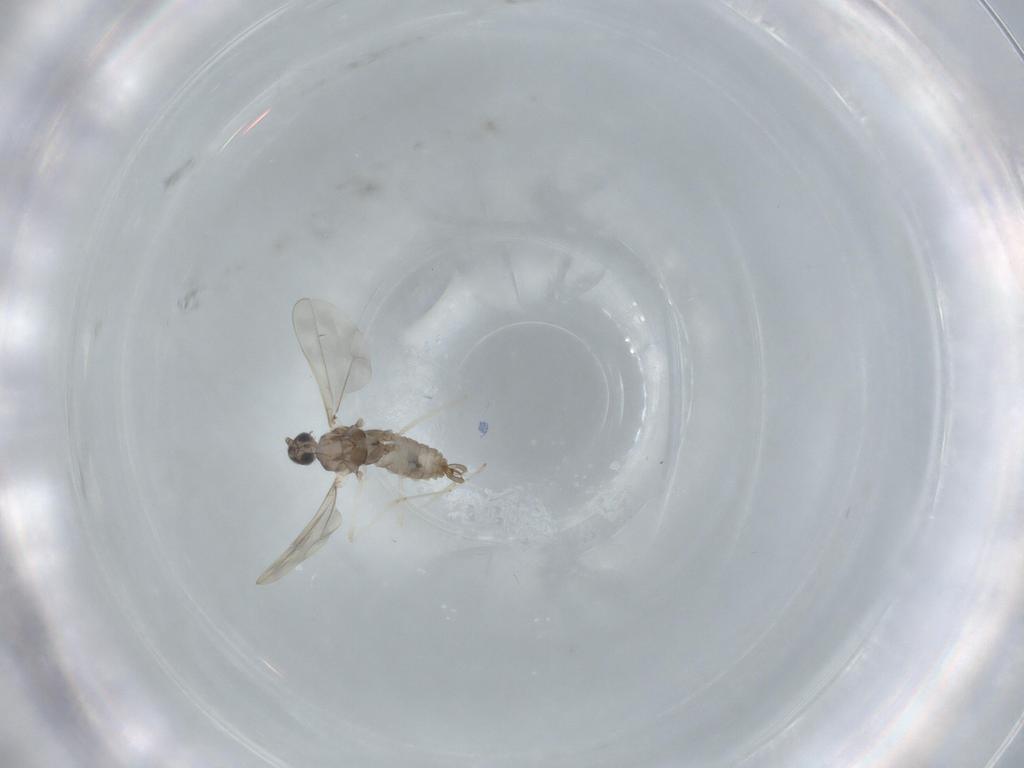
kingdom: Animalia
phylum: Arthropoda
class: Insecta
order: Diptera
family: Cecidomyiidae
